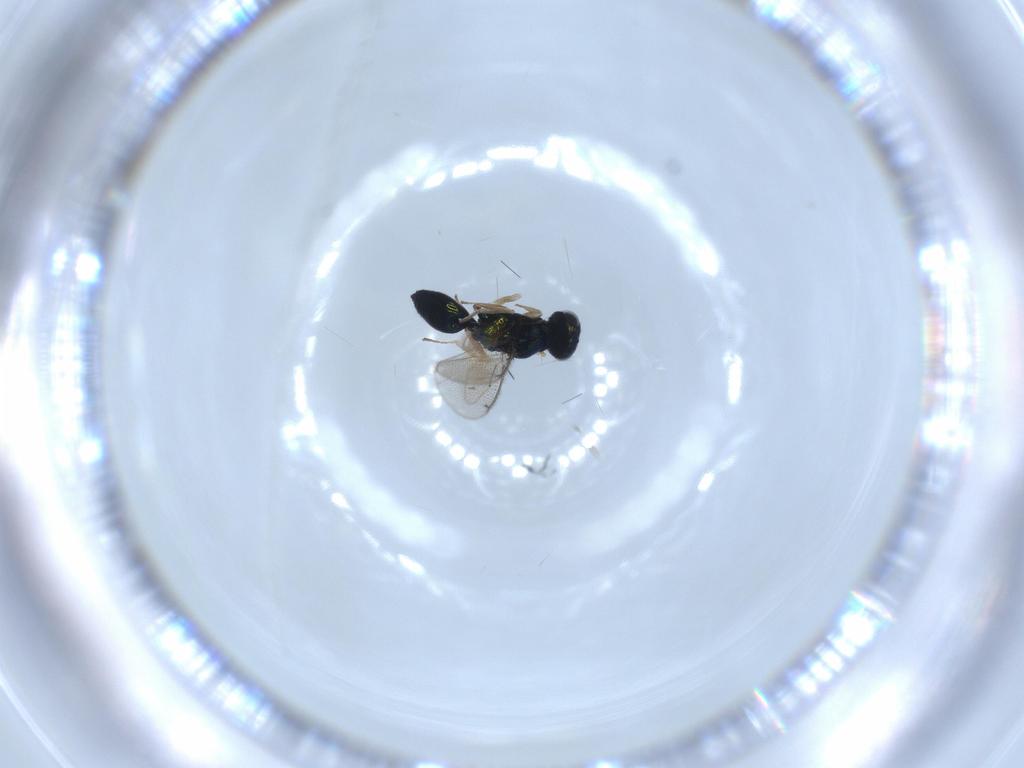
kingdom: Animalia
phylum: Arthropoda
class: Insecta
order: Hymenoptera
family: Eulophidae
